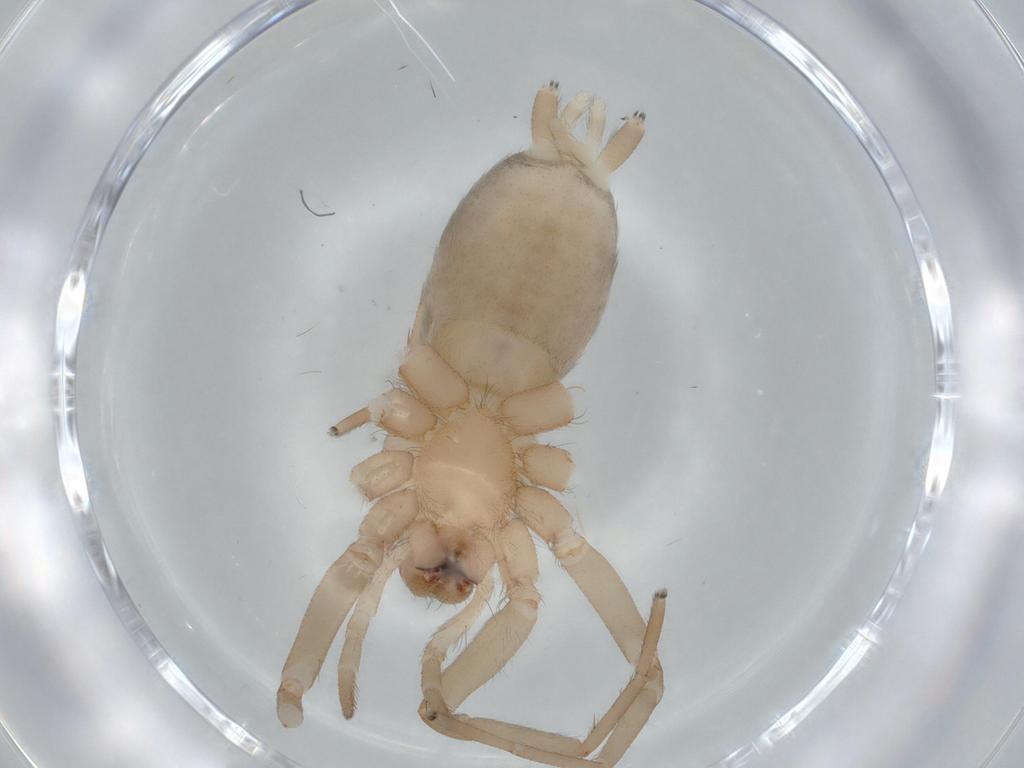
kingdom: Animalia
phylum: Arthropoda
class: Arachnida
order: Araneae
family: Gnaphosidae
